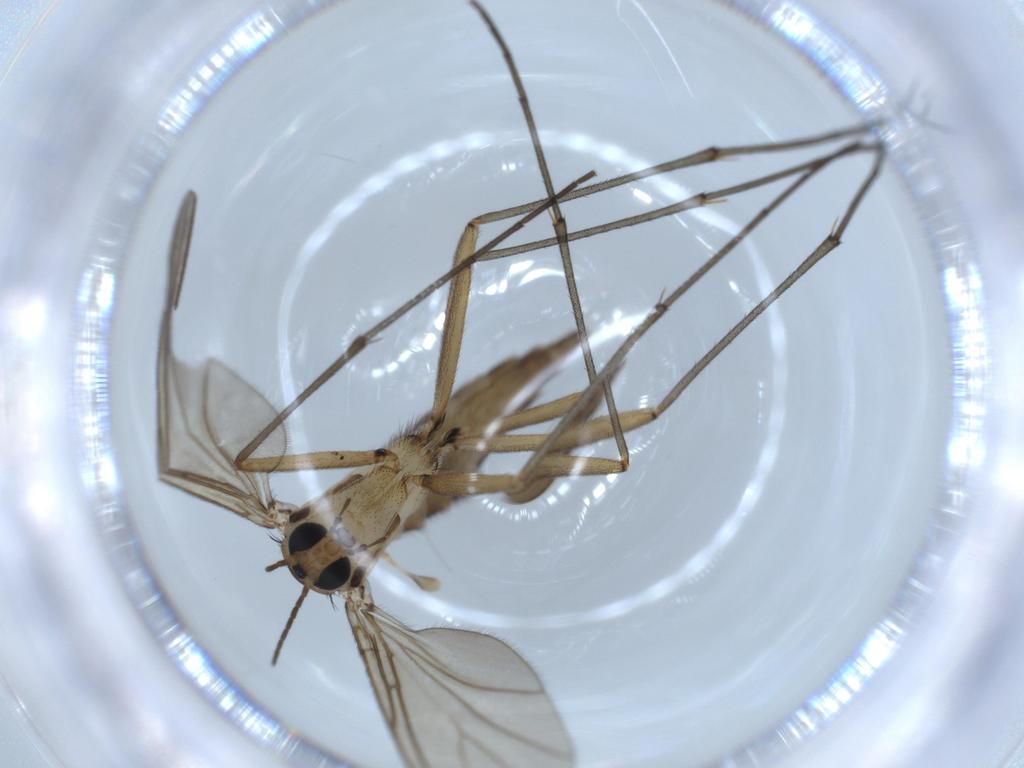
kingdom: Animalia
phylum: Arthropoda
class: Insecta
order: Diptera
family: Sciaridae
